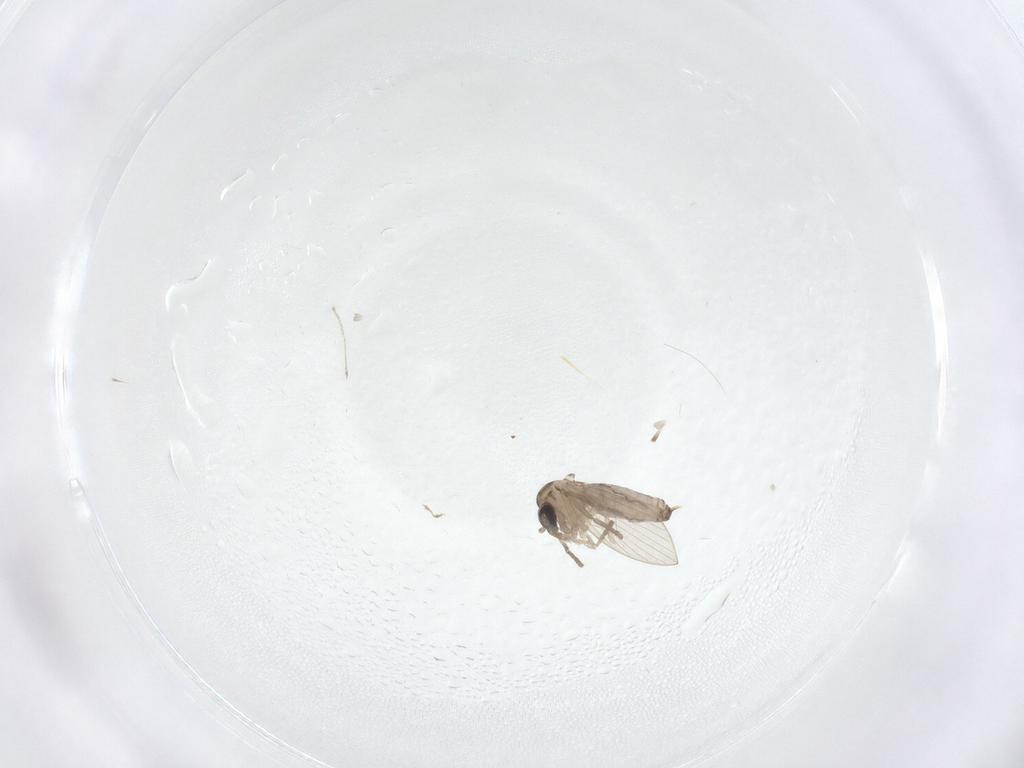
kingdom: Animalia
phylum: Arthropoda
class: Insecta
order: Diptera
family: Psychodidae
